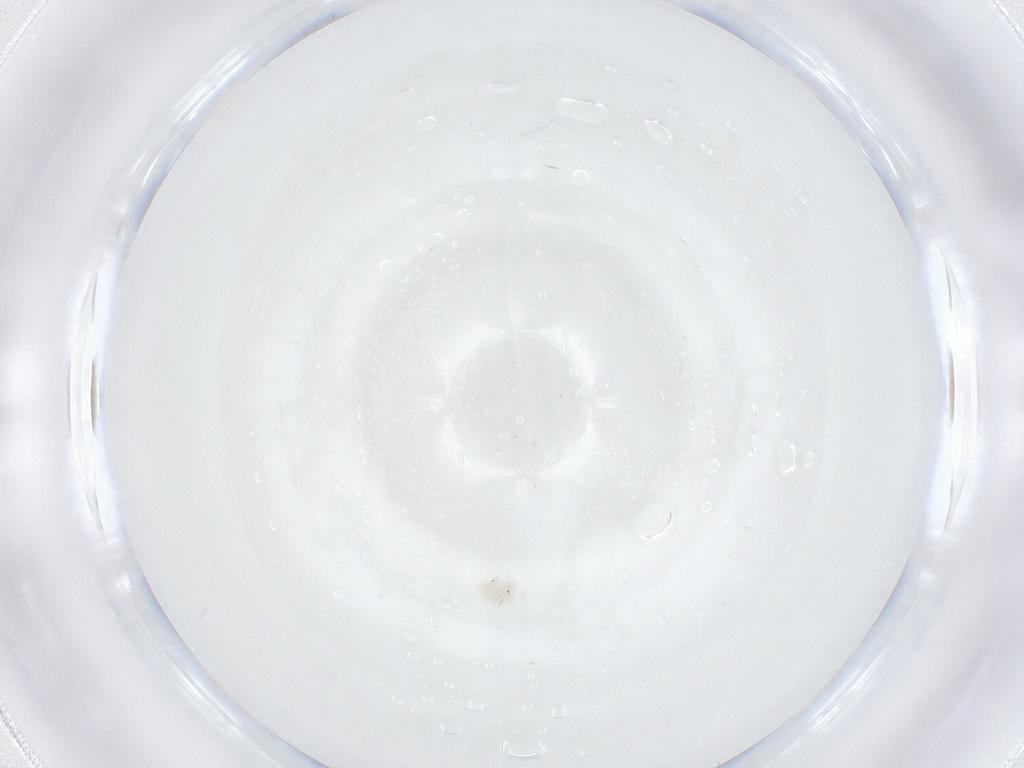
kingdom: Animalia
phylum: Arthropoda
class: Arachnida
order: Trombidiformes
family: Anystidae
